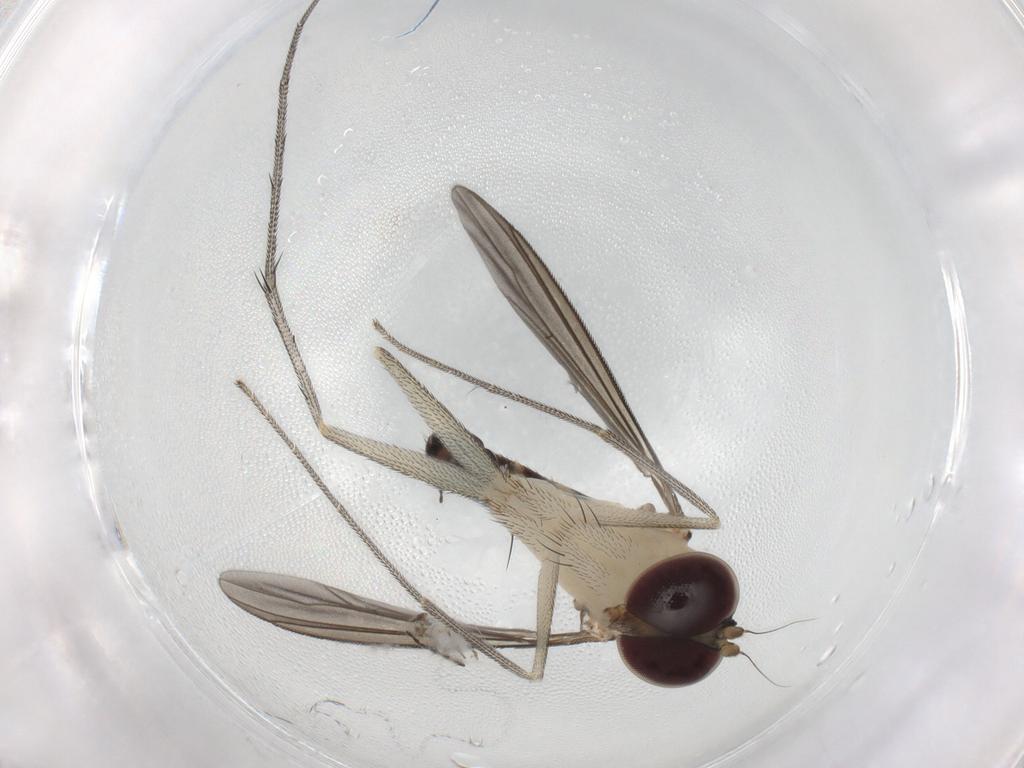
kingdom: Animalia
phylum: Arthropoda
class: Insecta
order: Diptera
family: Limoniidae
